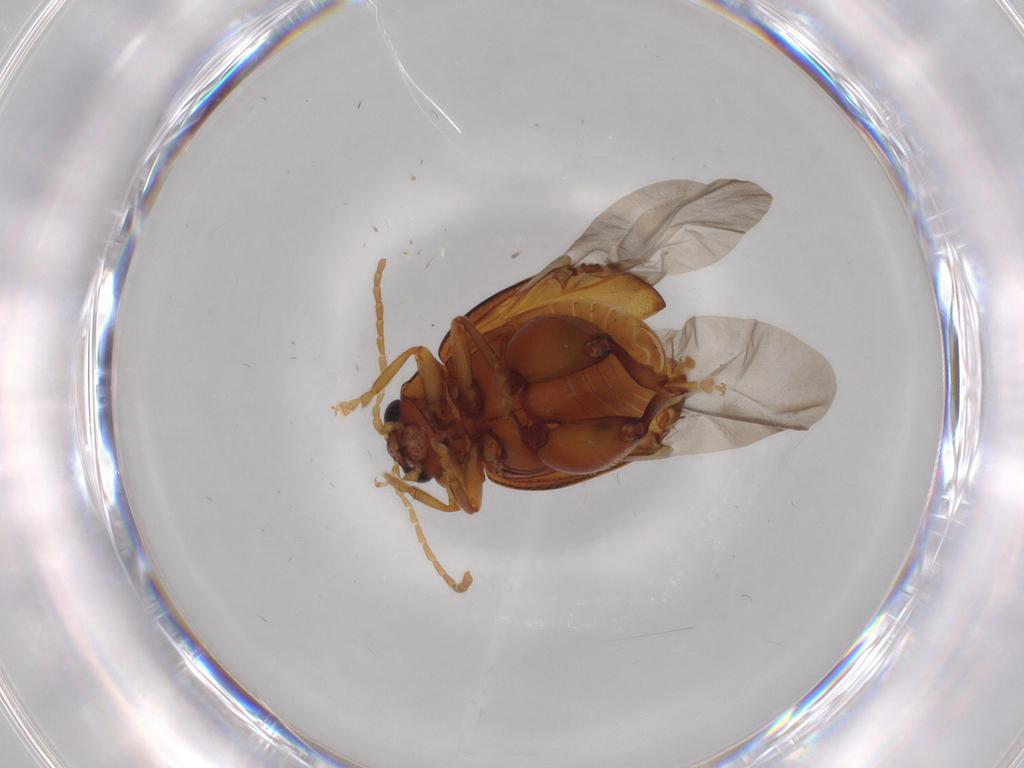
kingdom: Animalia
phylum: Arthropoda
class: Insecta
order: Coleoptera
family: Chrysomelidae
